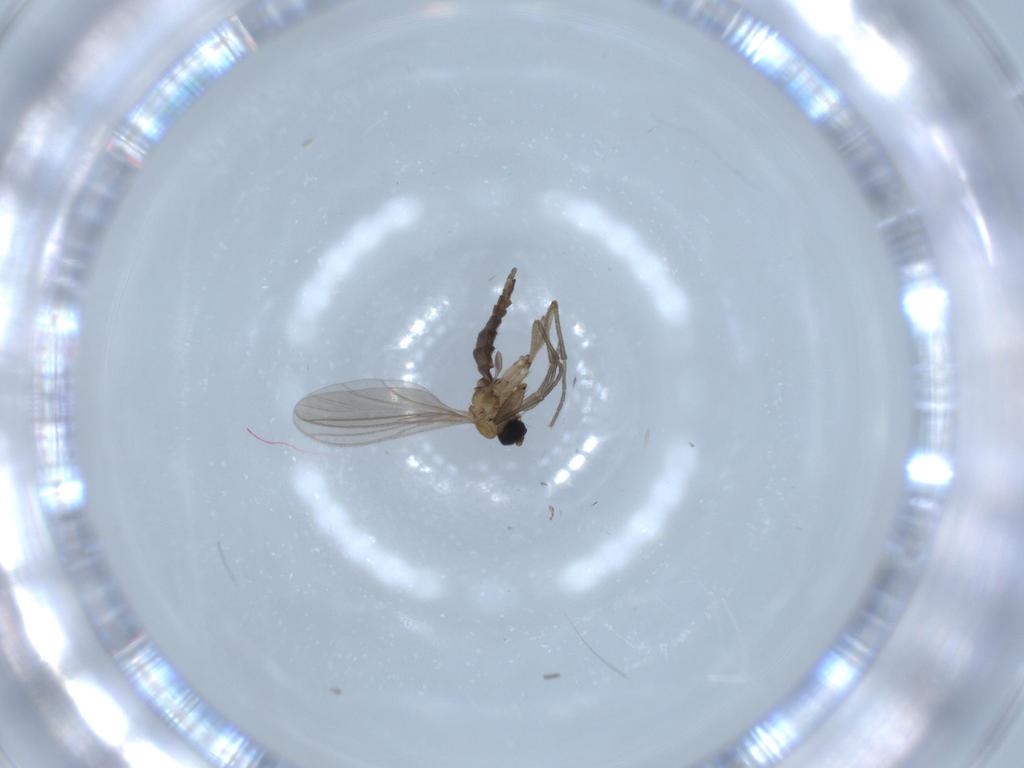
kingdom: Animalia
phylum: Arthropoda
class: Insecta
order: Diptera
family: Sciaridae
